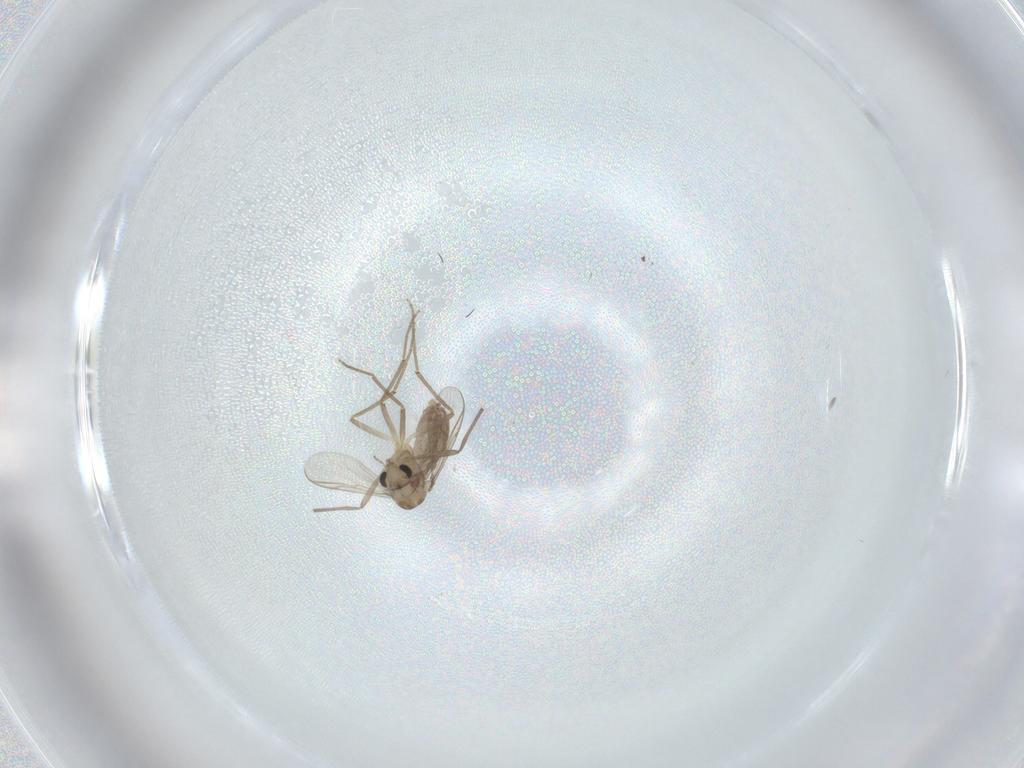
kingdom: Animalia
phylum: Arthropoda
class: Insecta
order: Diptera
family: Chironomidae
